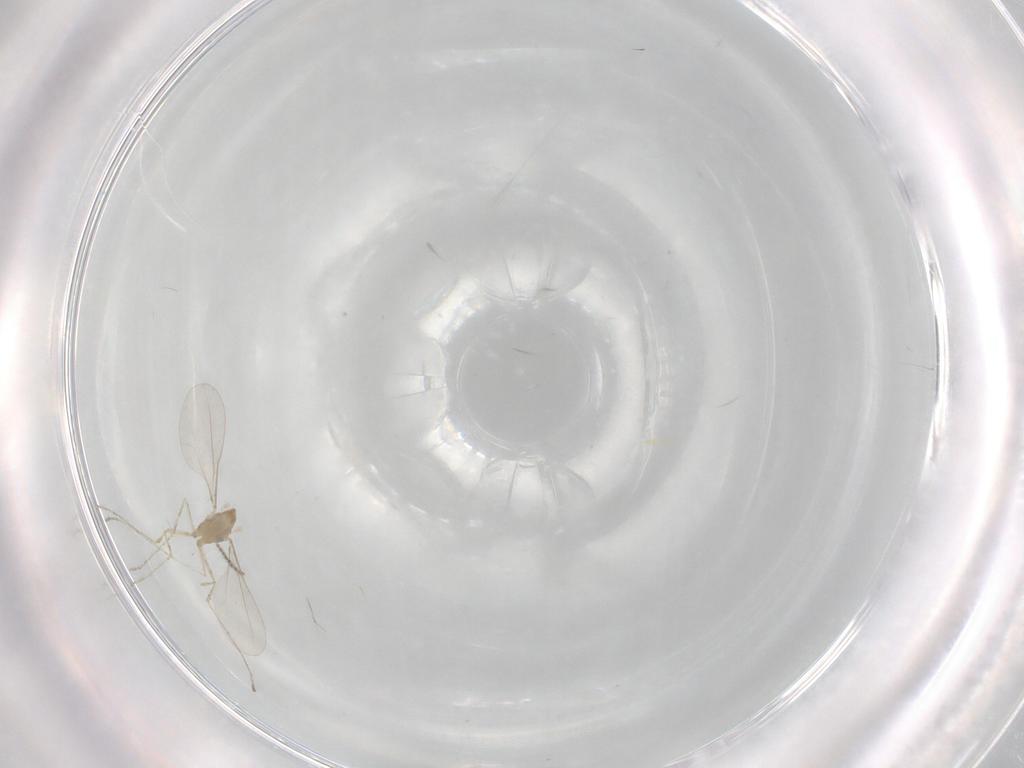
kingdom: Animalia
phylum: Arthropoda
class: Insecta
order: Diptera
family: Cecidomyiidae
